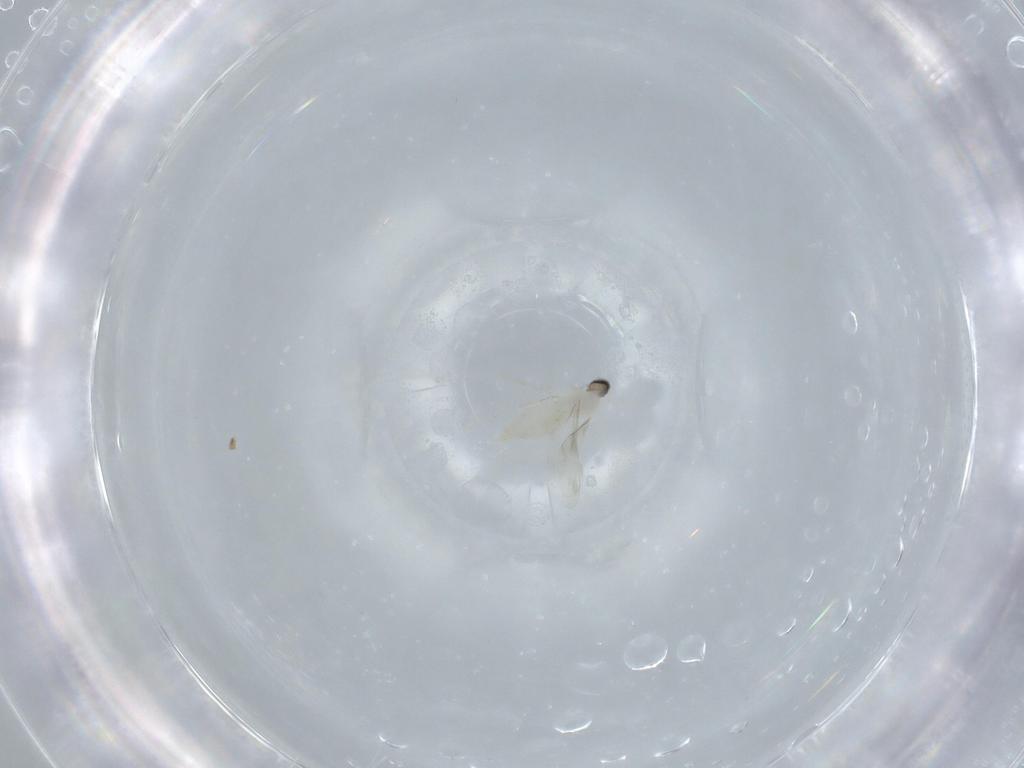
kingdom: Animalia
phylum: Arthropoda
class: Insecta
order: Diptera
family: Cecidomyiidae
